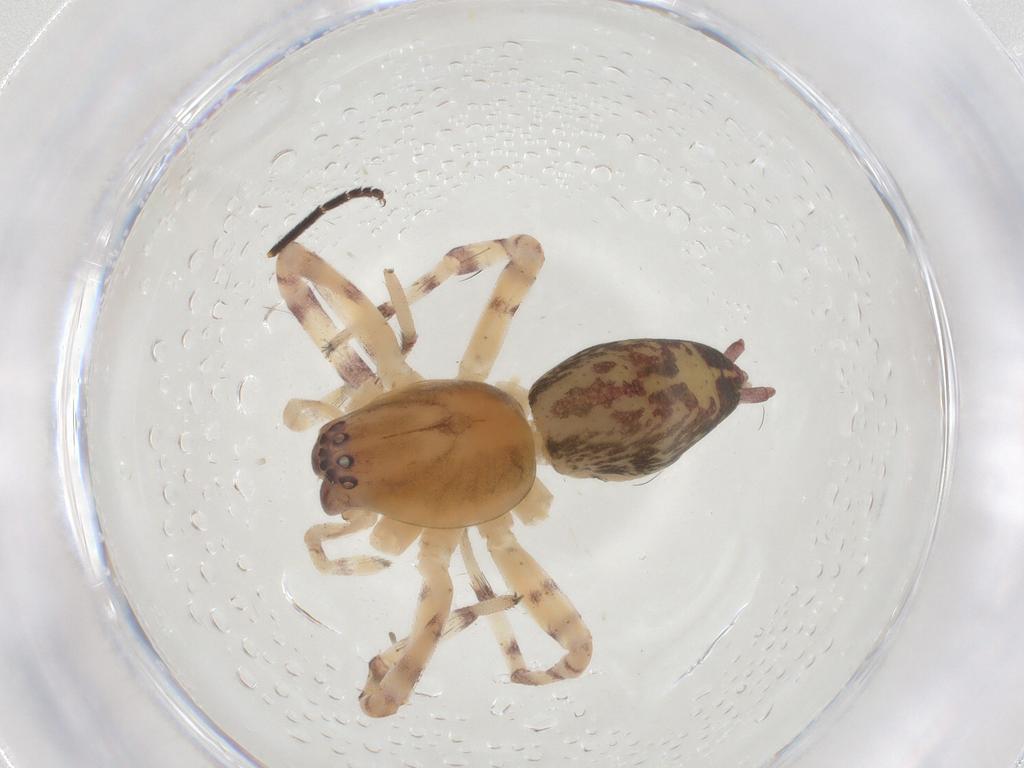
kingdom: Animalia
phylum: Arthropoda
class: Arachnida
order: Araneae
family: Anyphaenidae
